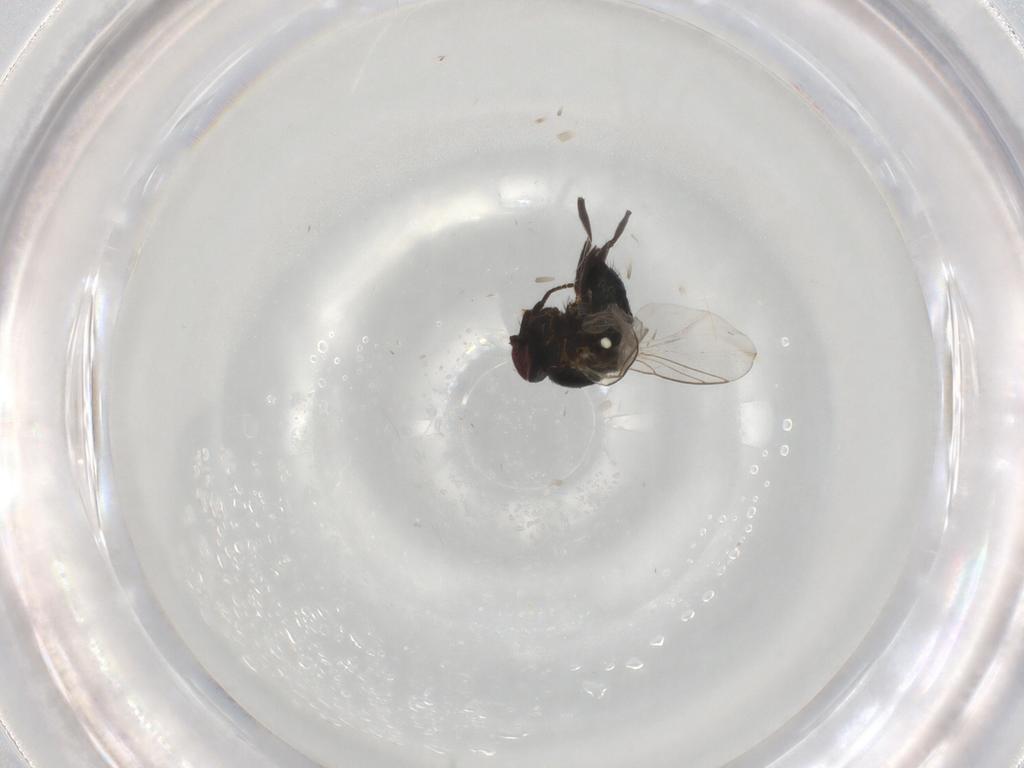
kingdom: Animalia
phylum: Arthropoda
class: Insecta
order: Diptera
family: Agromyzidae
